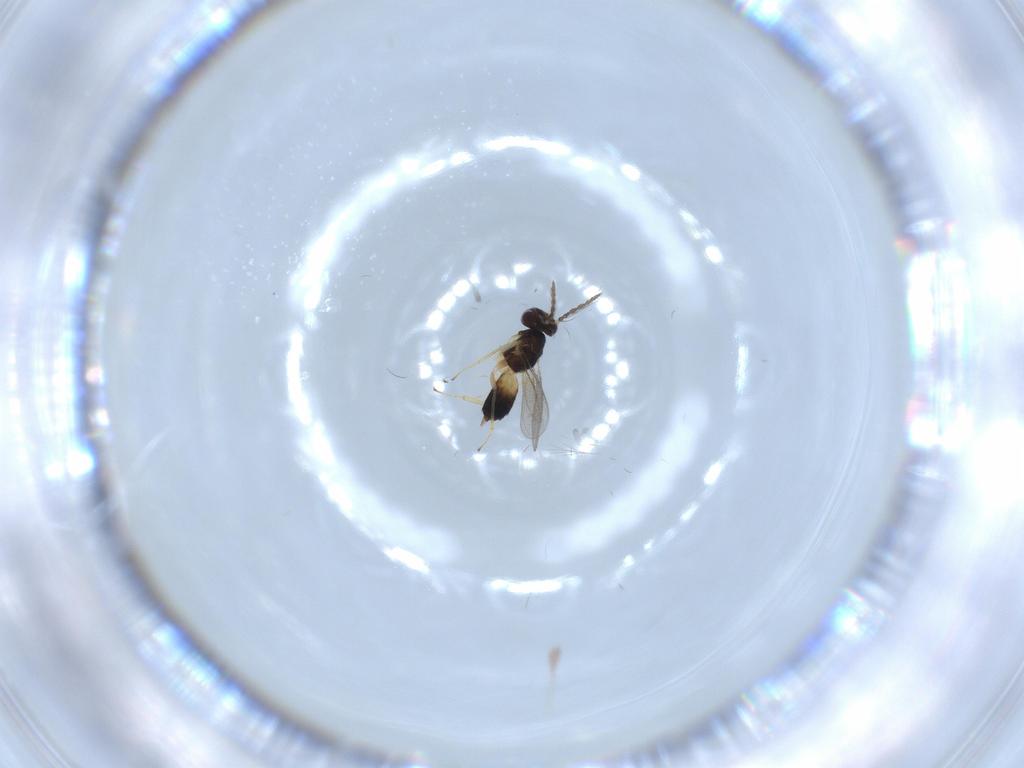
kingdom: Animalia
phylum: Arthropoda
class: Insecta
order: Hymenoptera
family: Eulophidae
